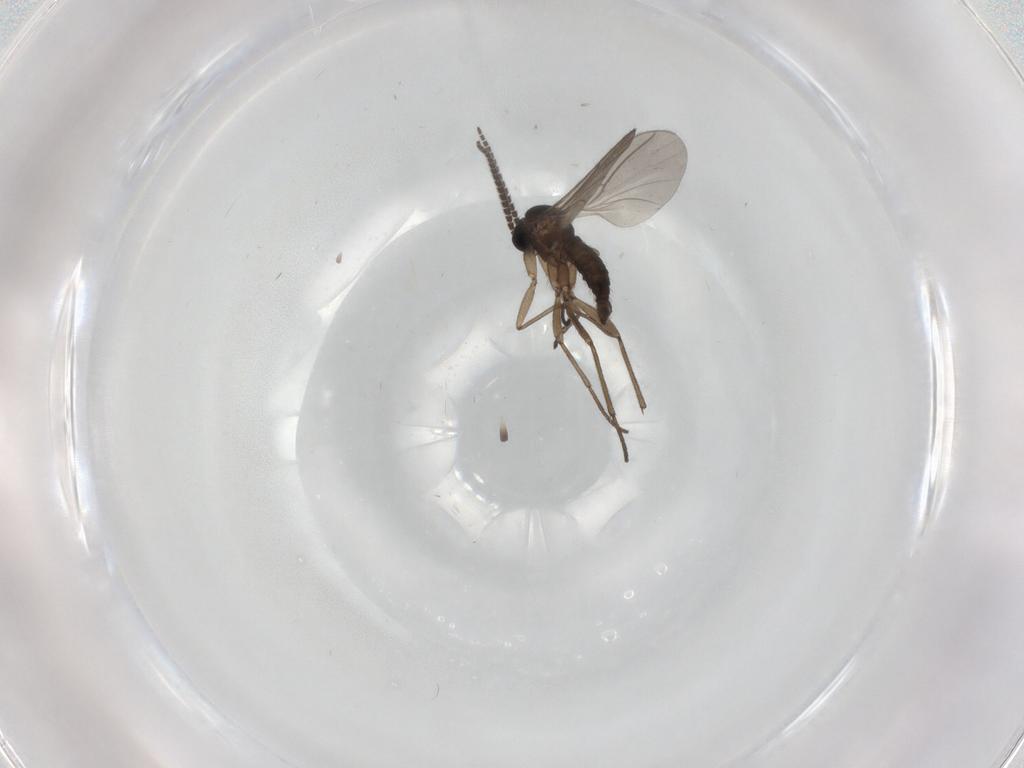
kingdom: Animalia
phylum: Arthropoda
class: Insecta
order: Diptera
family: Sciaridae
